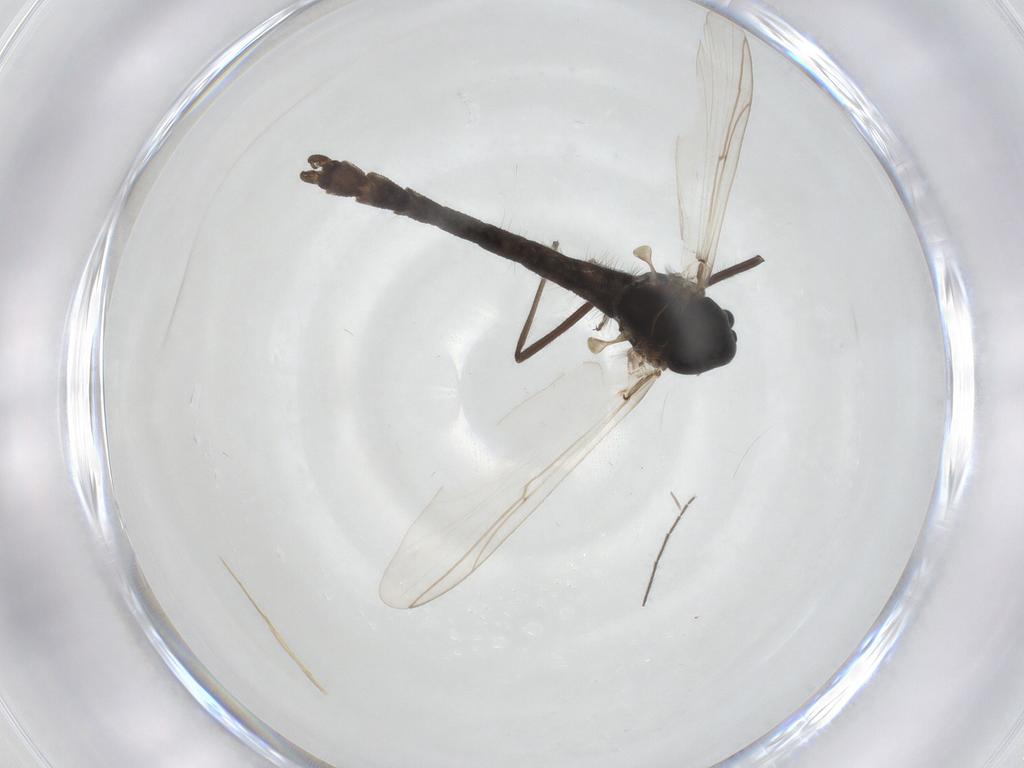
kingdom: Animalia
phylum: Arthropoda
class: Insecta
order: Diptera
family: Chironomidae
